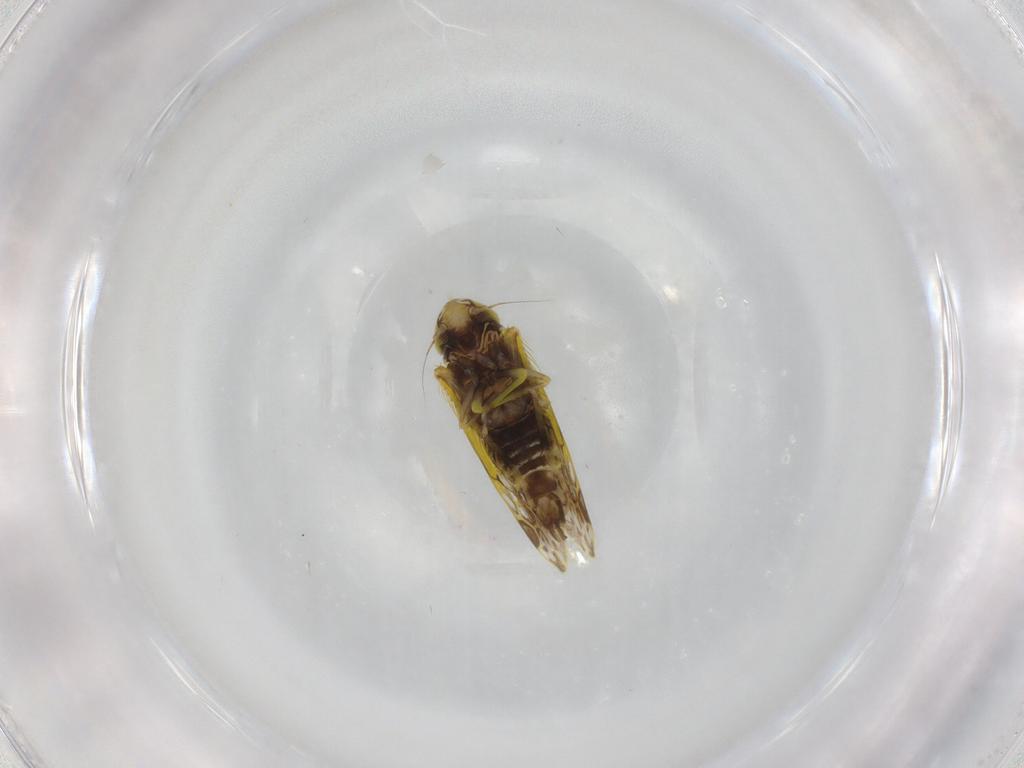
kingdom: Animalia
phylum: Arthropoda
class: Insecta
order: Hemiptera
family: Cicadellidae
